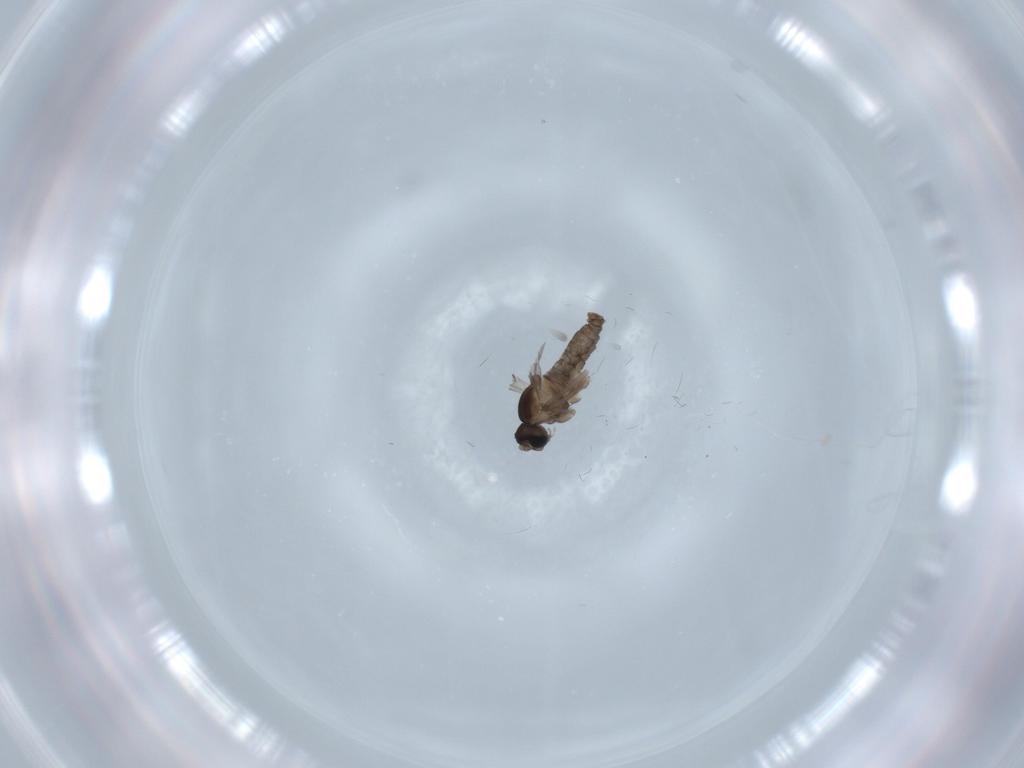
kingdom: Animalia
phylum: Arthropoda
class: Insecta
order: Diptera
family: Cecidomyiidae
